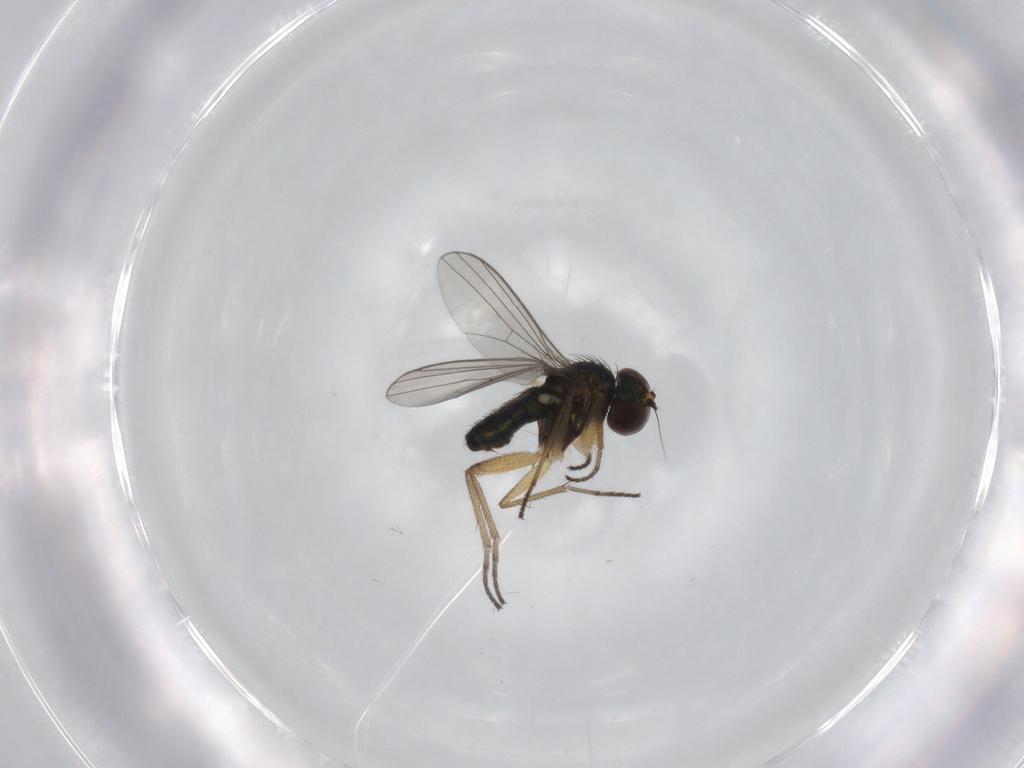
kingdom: Animalia
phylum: Arthropoda
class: Insecta
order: Diptera
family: Dolichopodidae
